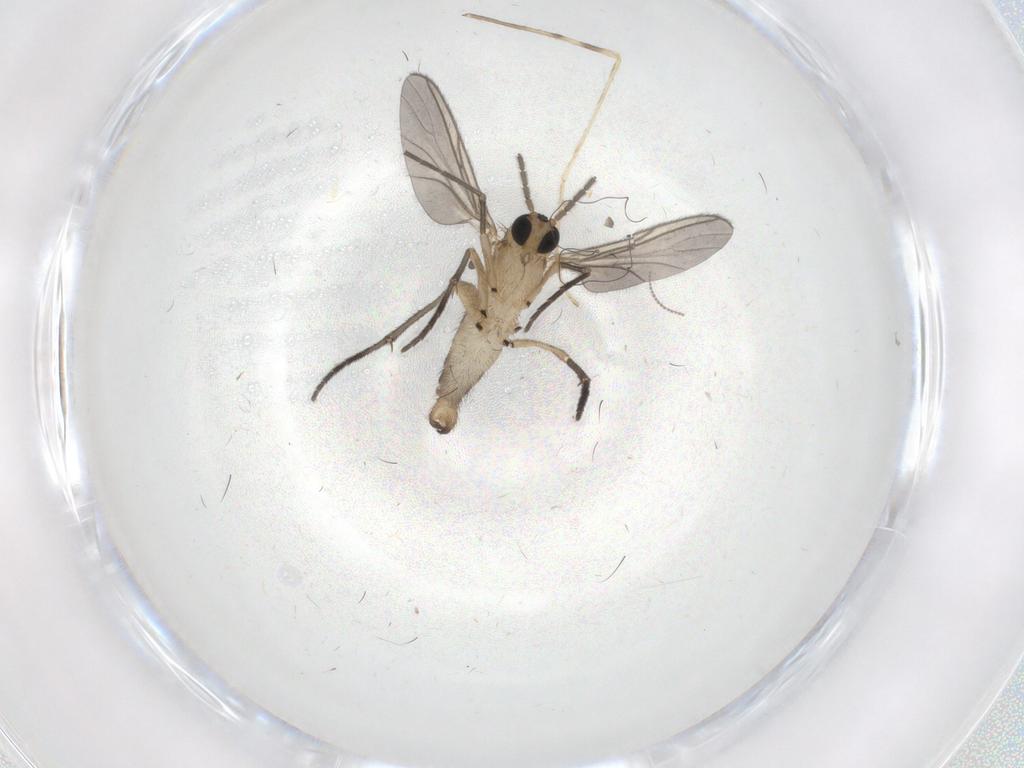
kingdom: Animalia
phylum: Arthropoda
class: Insecta
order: Diptera
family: Sciaridae
